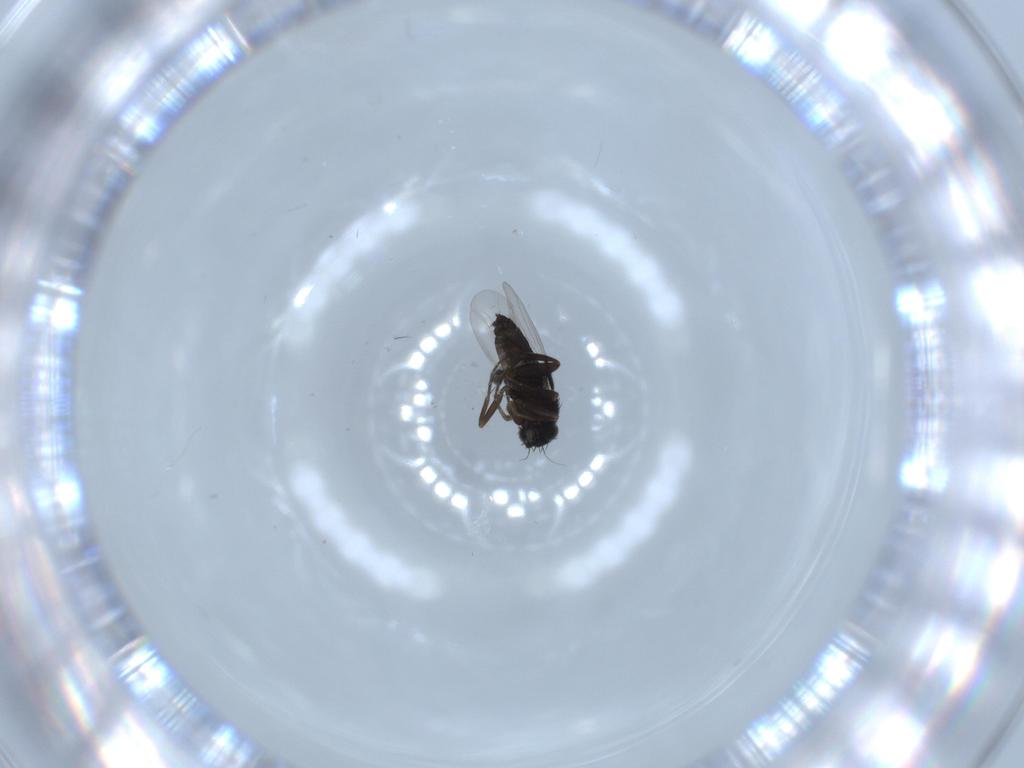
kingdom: Animalia
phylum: Arthropoda
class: Insecta
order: Diptera
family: Phoridae
